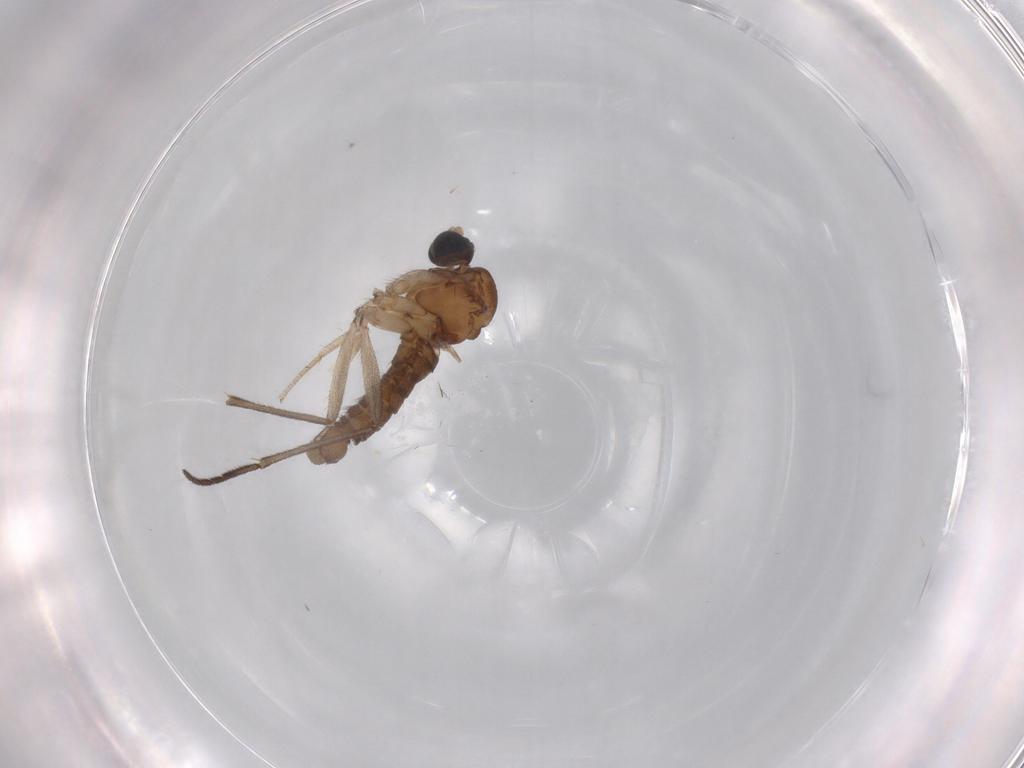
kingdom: Animalia
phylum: Arthropoda
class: Insecta
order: Diptera
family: Sciaridae
